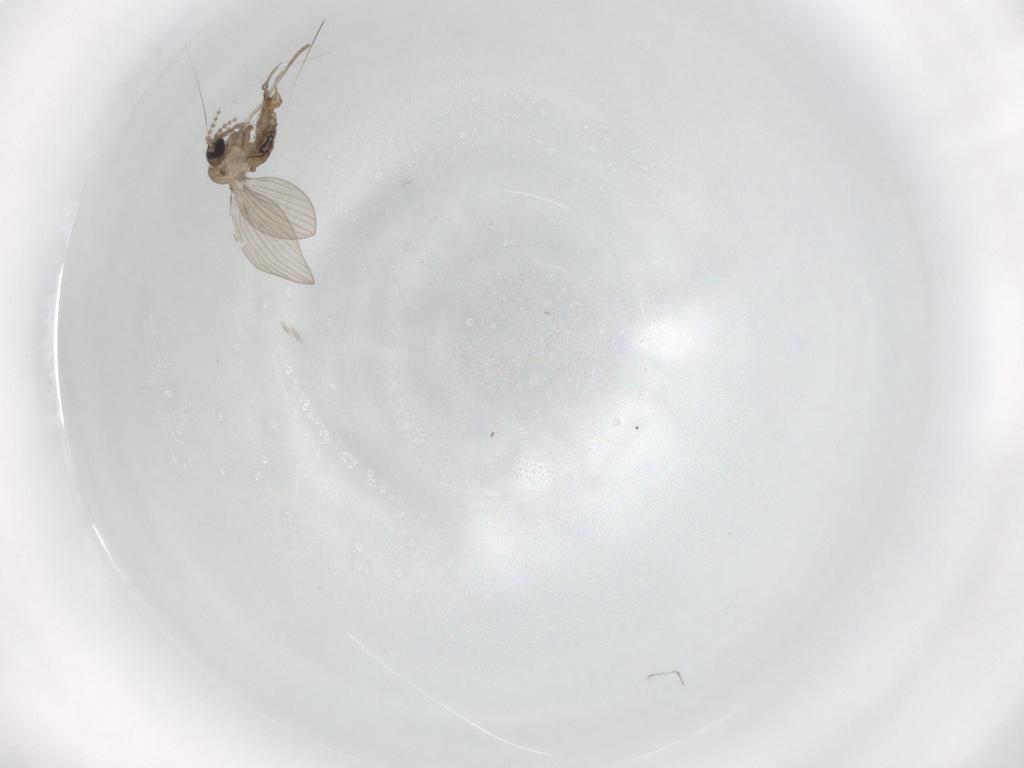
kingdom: Animalia
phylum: Arthropoda
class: Insecta
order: Diptera
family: Psychodidae
